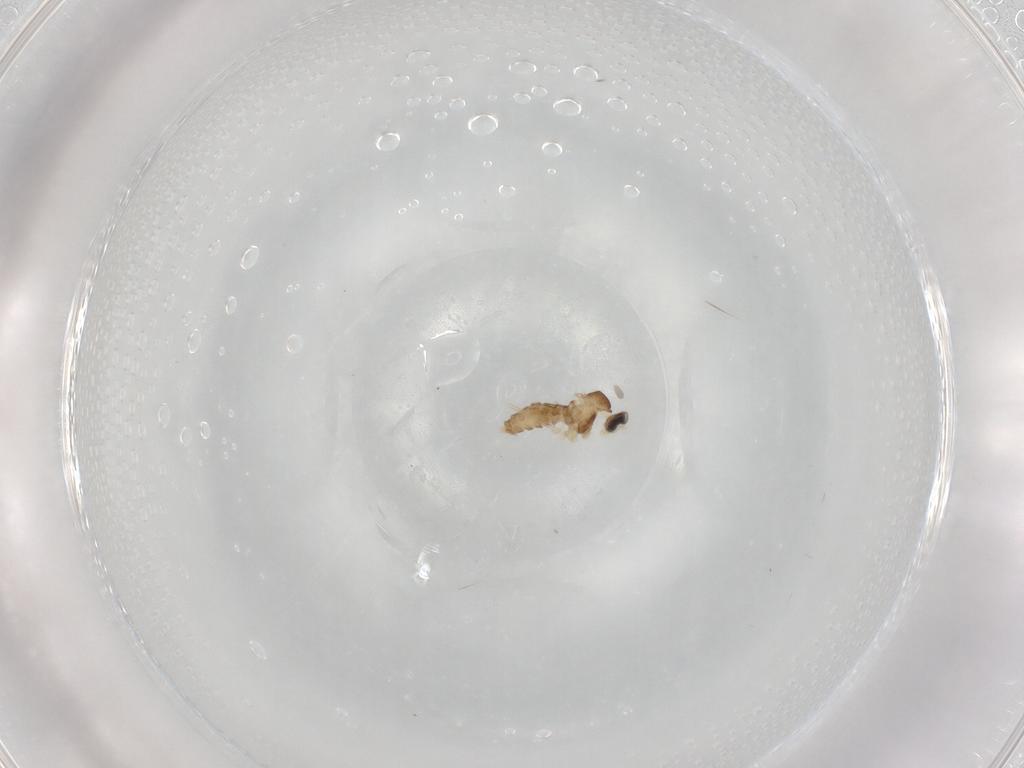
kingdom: Animalia
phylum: Arthropoda
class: Insecta
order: Diptera
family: Cecidomyiidae
